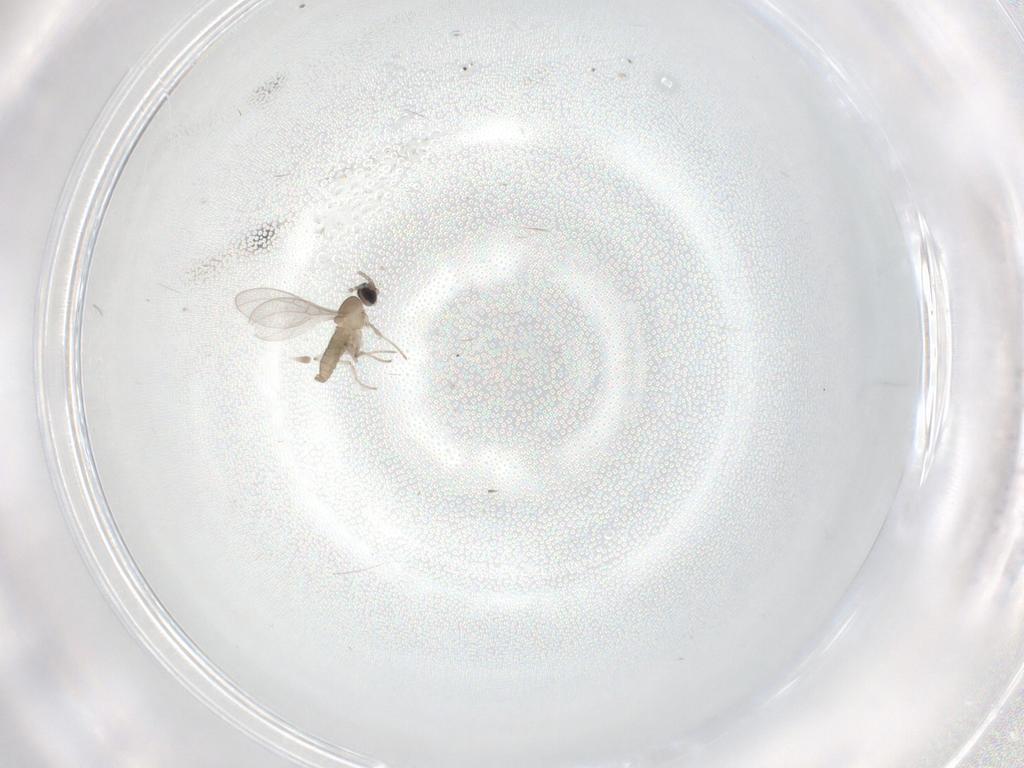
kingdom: Animalia
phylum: Arthropoda
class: Insecta
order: Diptera
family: Cecidomyiidae
